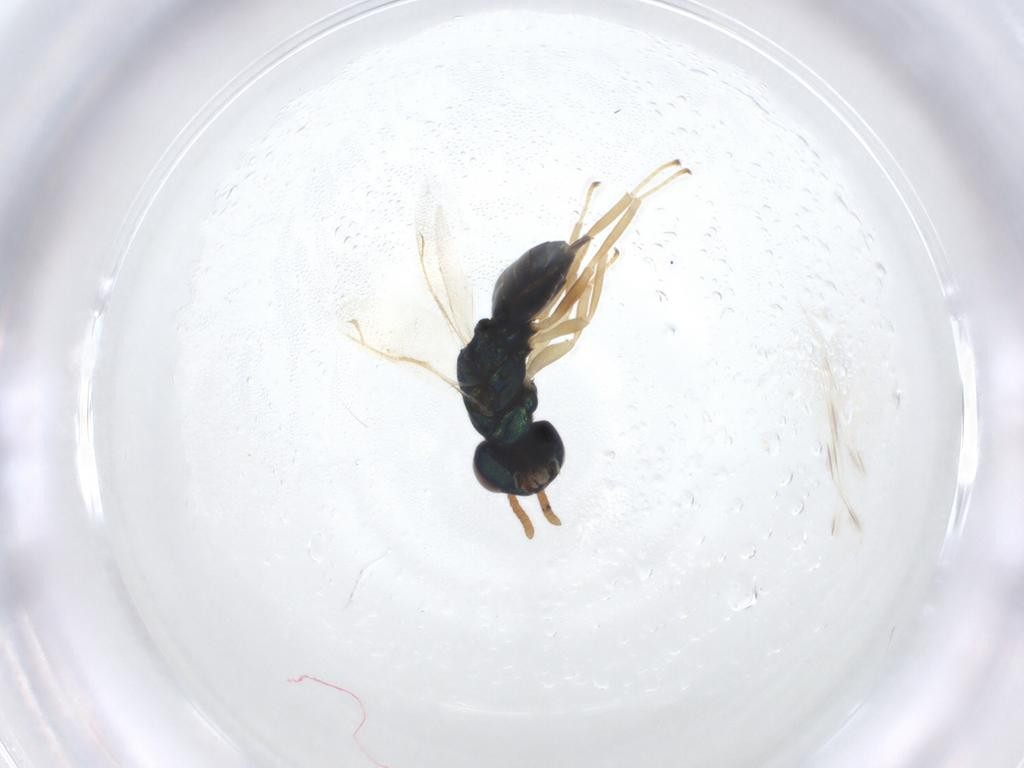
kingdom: Animalia
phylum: Arthropoda
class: Insecta
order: Hymenoptera
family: Pteromalidae
